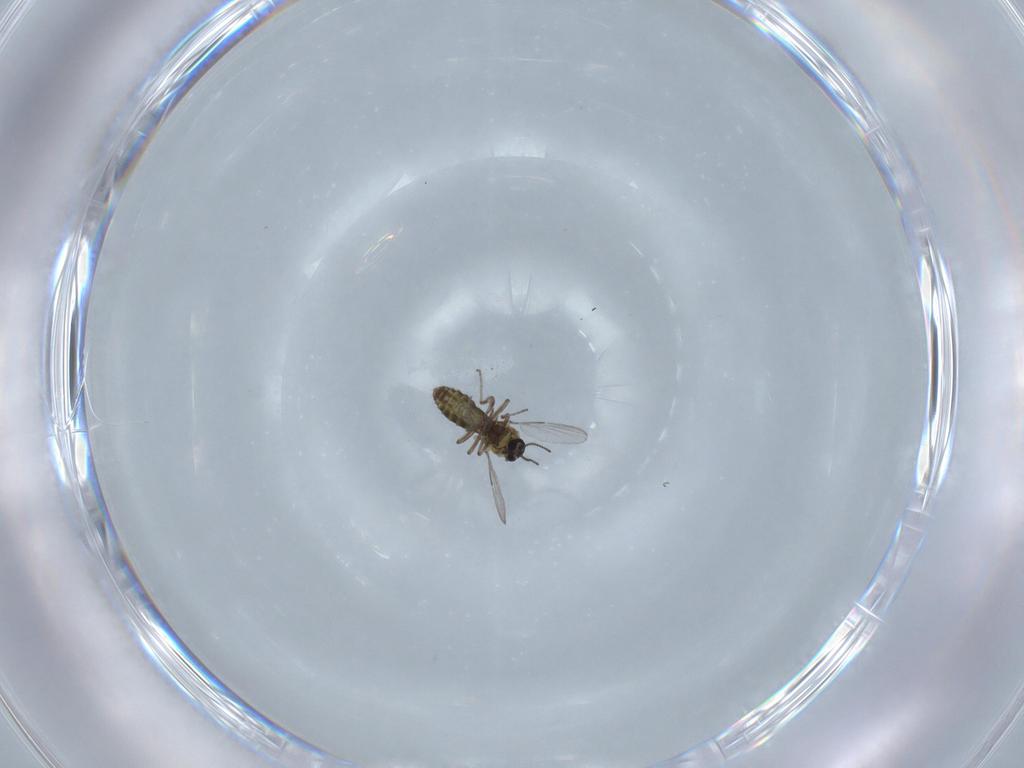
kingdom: Animalia
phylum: Arthropoda
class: Insecta
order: Diptera
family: Ceratopogonidae
